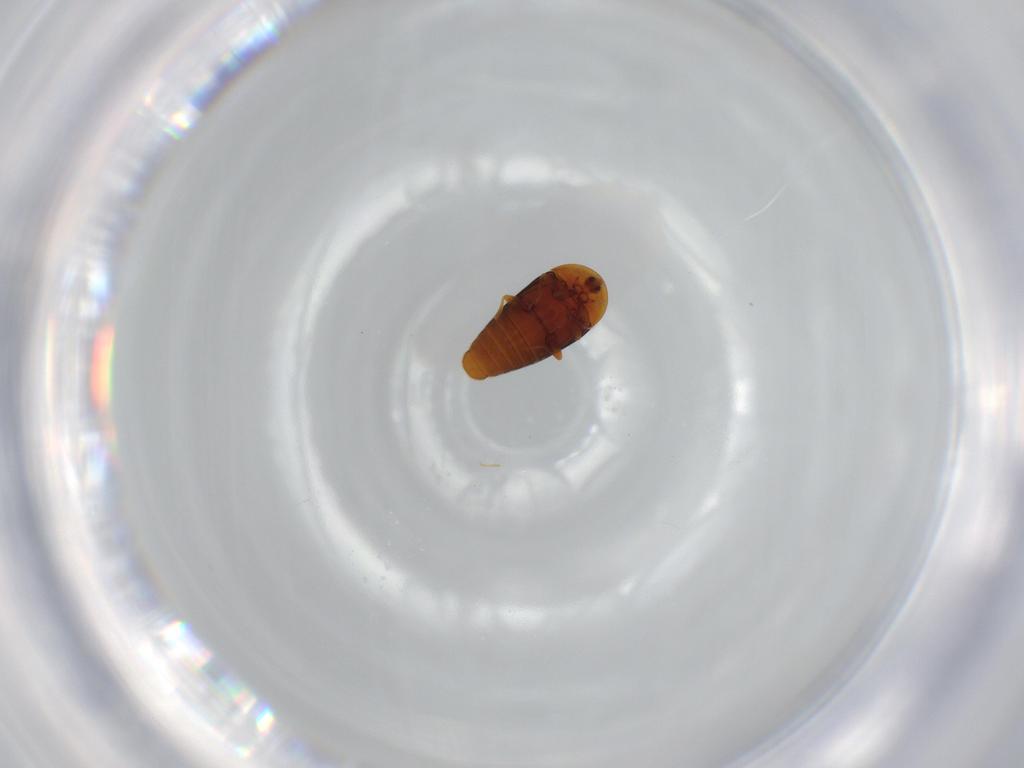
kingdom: Animalia
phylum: Arthropoda
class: Insecta
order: Coleoptera
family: Corylophidae
